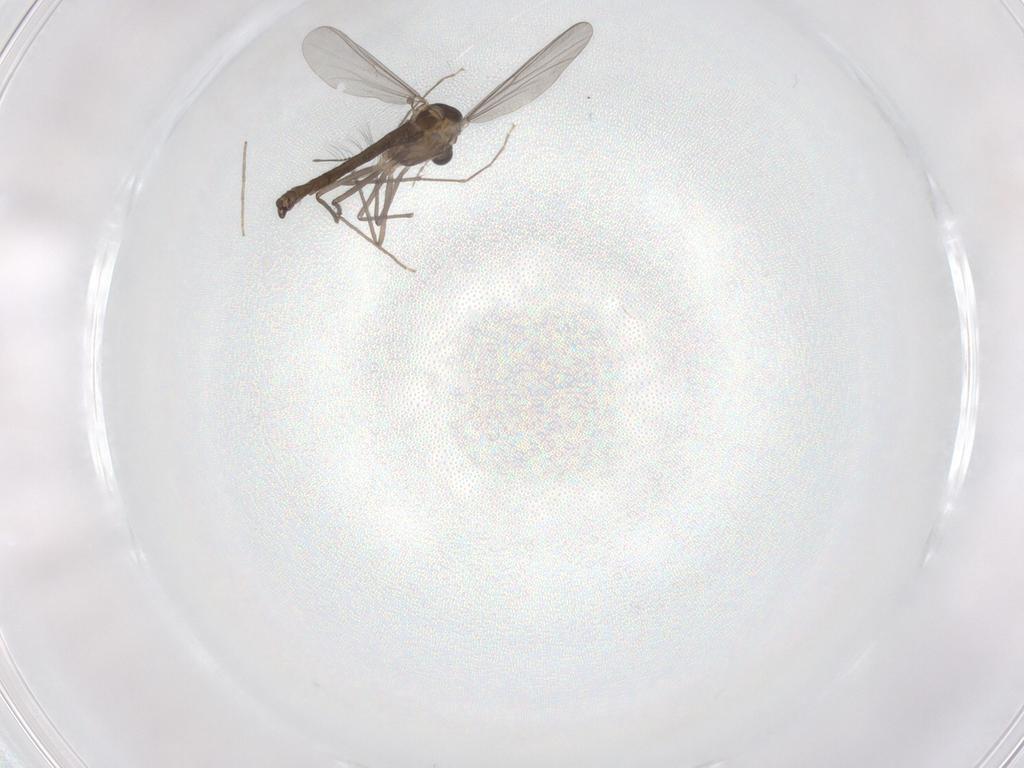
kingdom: Animalia
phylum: Arthropoda
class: Insecta
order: Diptera
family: Chironomidae
